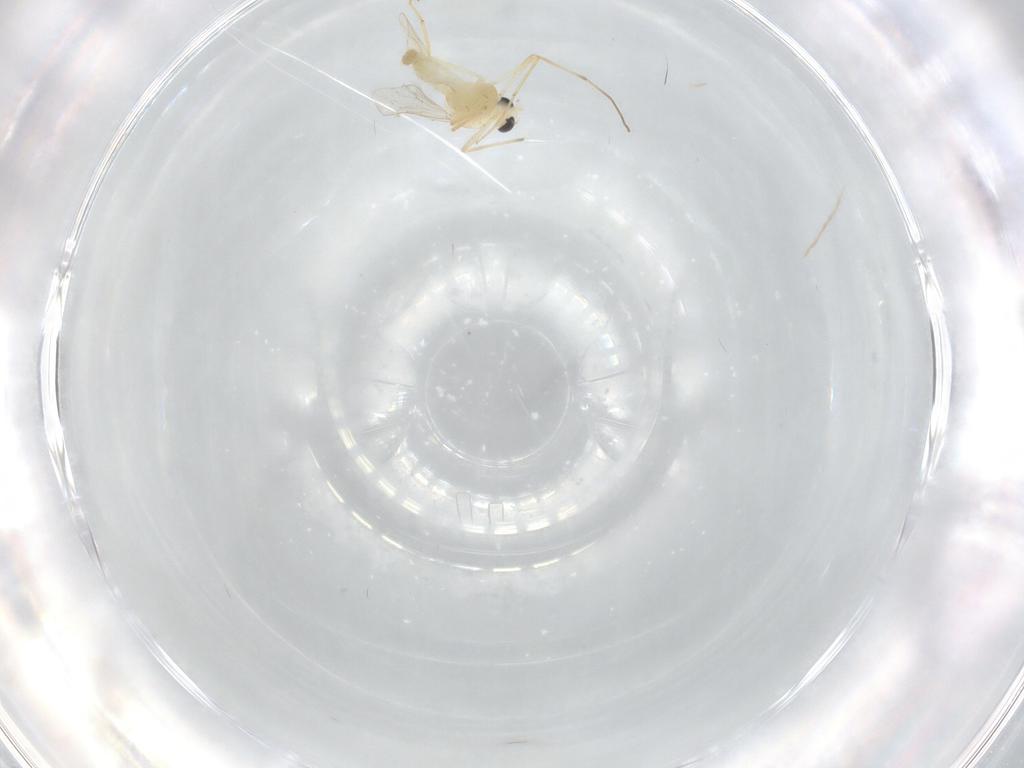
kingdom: Animalia
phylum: Arthropoda
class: Insecta
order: Diptera
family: Chironomidae
